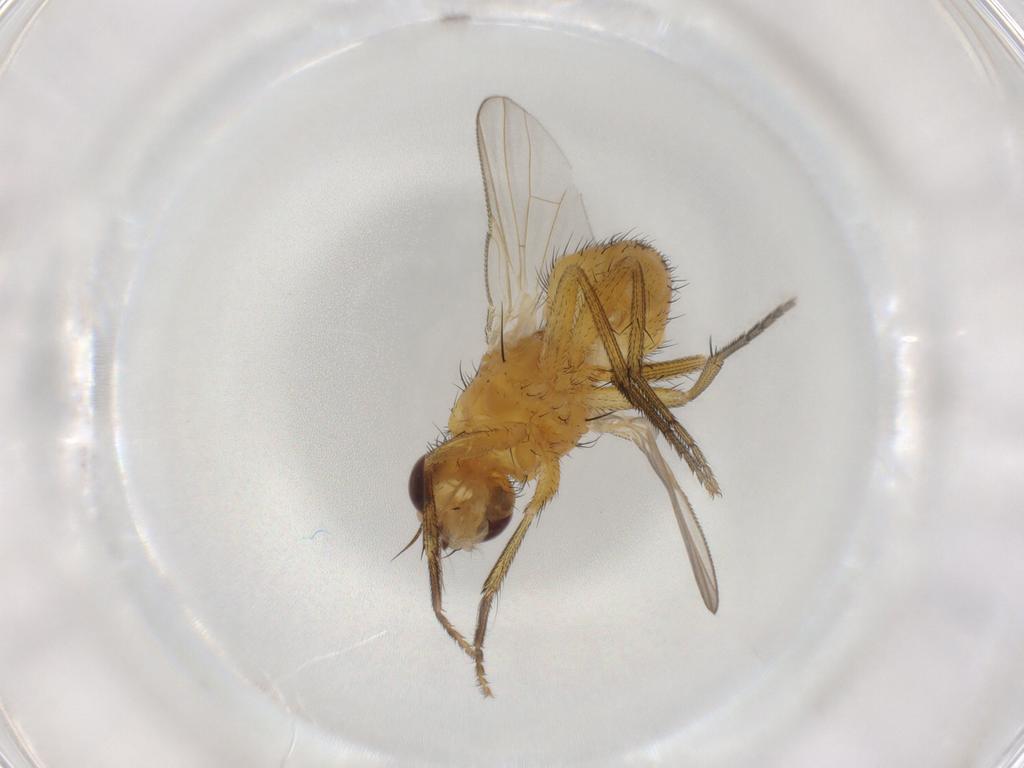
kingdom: Animalia
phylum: Arthropoda
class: Insecta
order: Diptera
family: Muscidae
